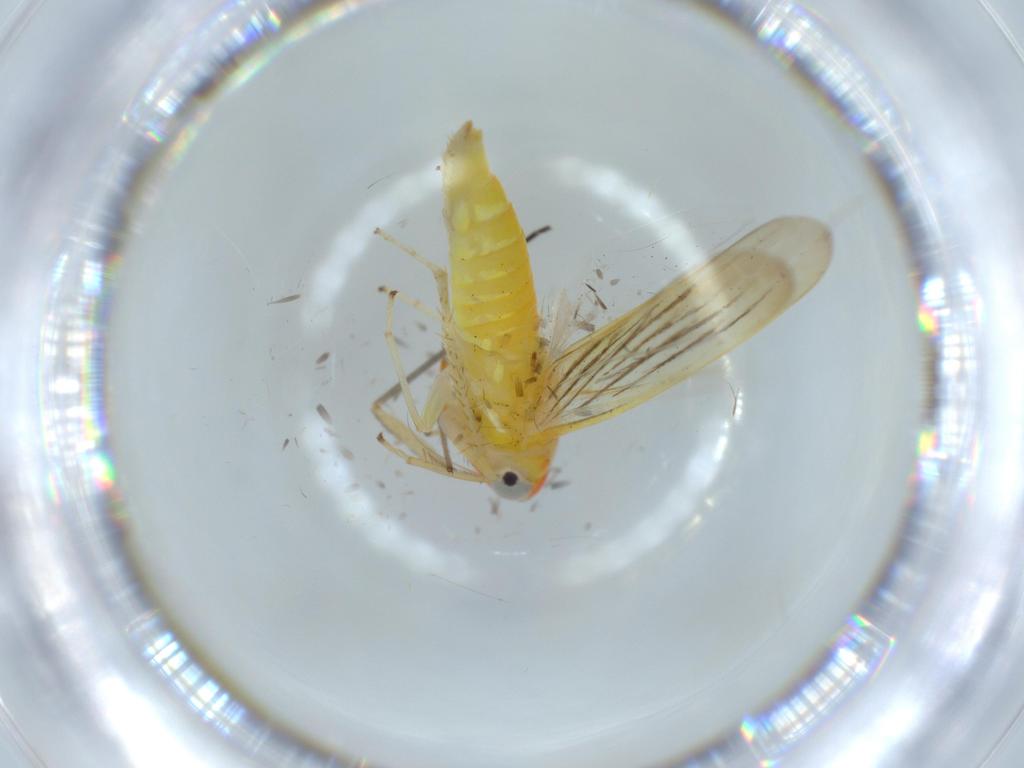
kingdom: Animalia
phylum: Arthropoda
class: Insecta
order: Hemiptera
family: Cicadellidae
